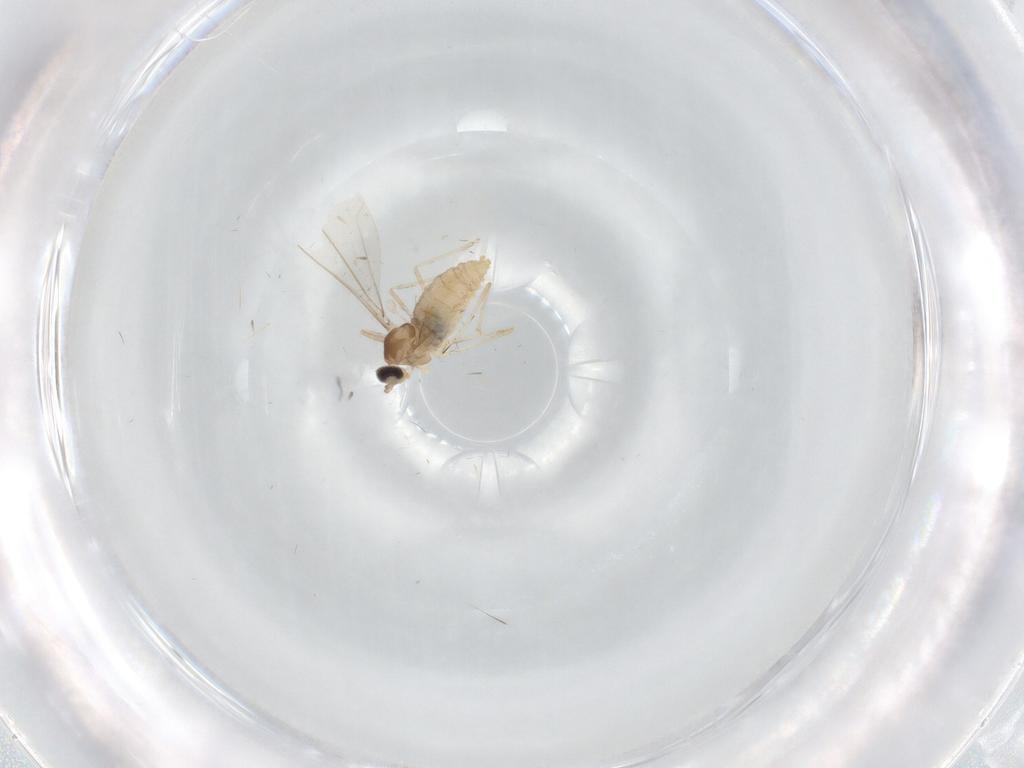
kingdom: Animalia
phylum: Arthropoda
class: Insecta
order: Diptera
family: Cecidomyiidae
